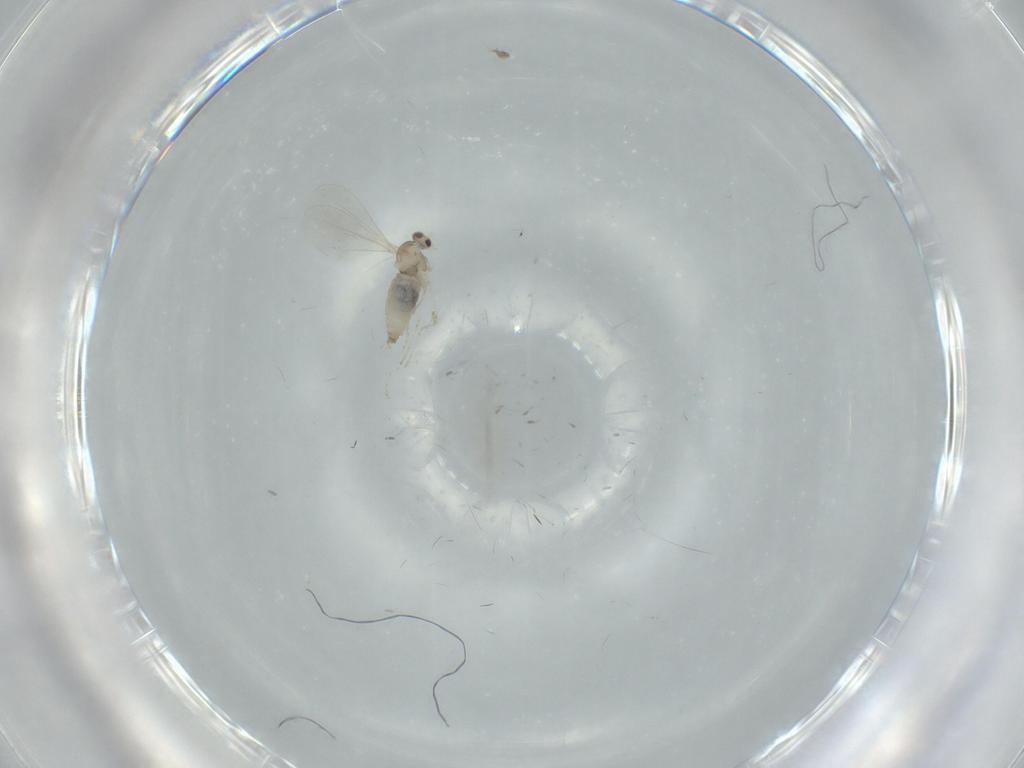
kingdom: Animalia
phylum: Arthropoda
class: Insecta
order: Diptera
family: Cecidomyiidae
